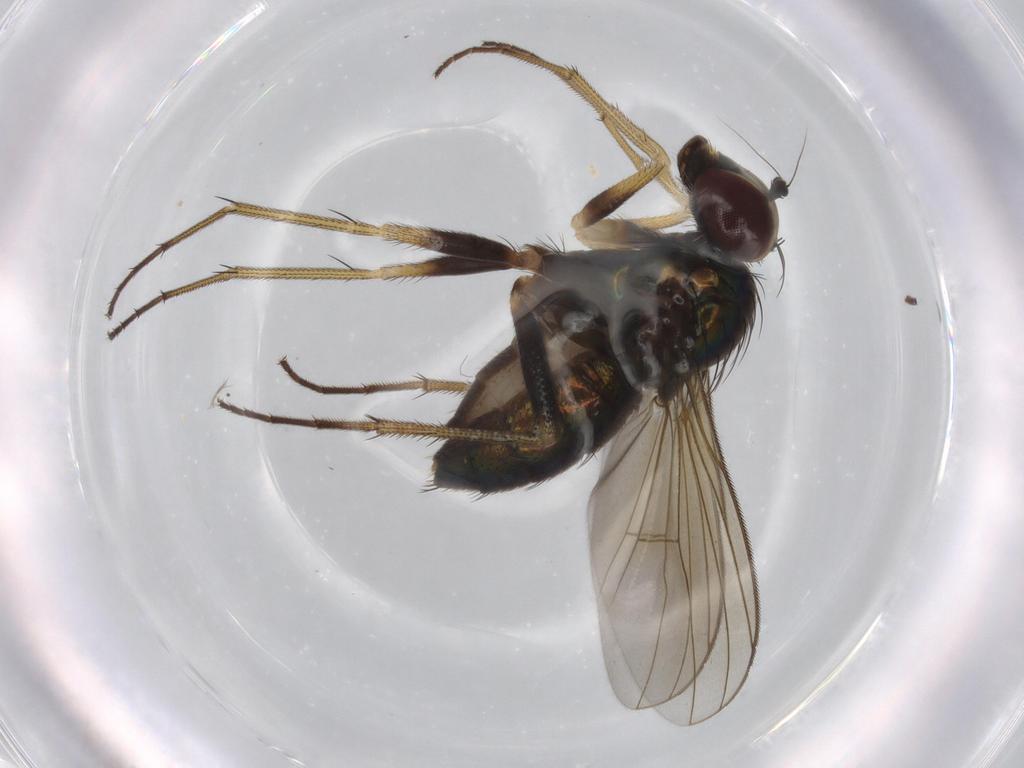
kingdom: Animalia
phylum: Arthropoda
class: Insecta
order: Diptera
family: Dolichopodidae
